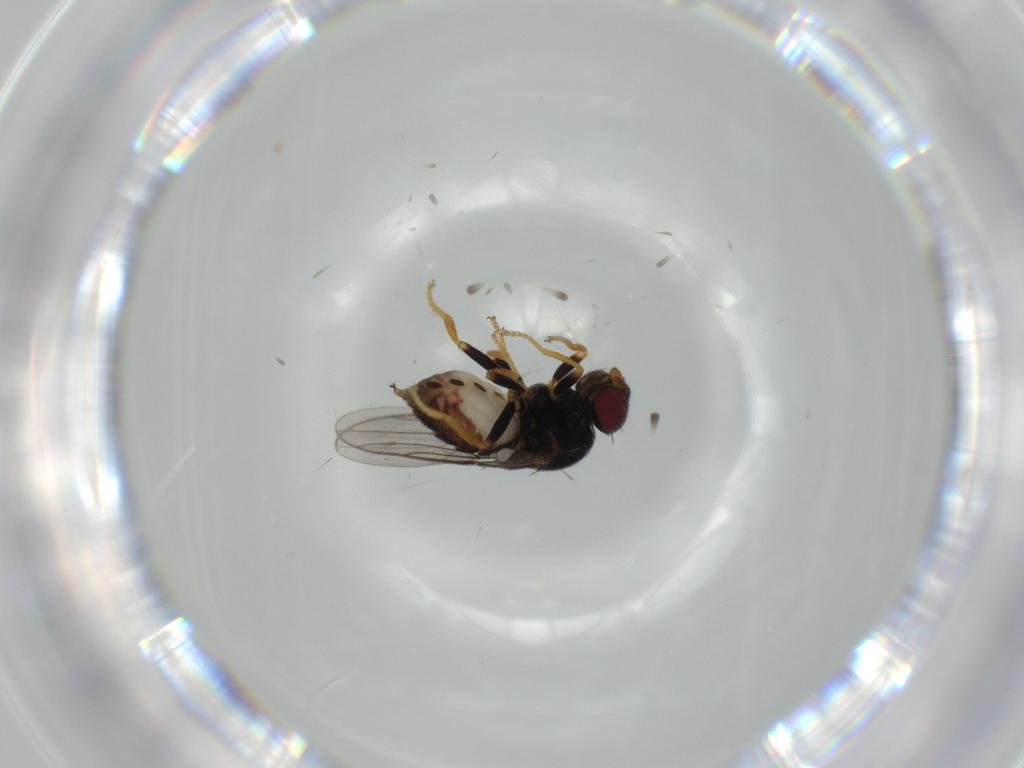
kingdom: Animalia
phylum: Arthropoda
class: Insecta
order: Diptera
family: Chloropidae
